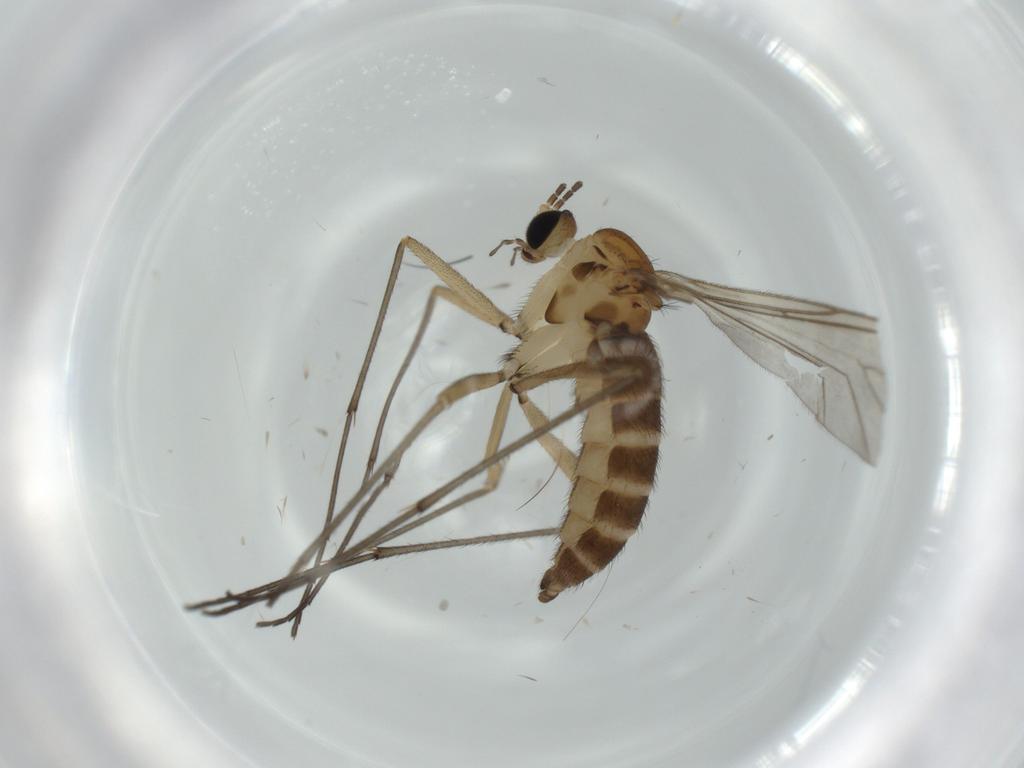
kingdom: Animalia
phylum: Arthropoda
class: Insecta
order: Diptera
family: Sciaridae
